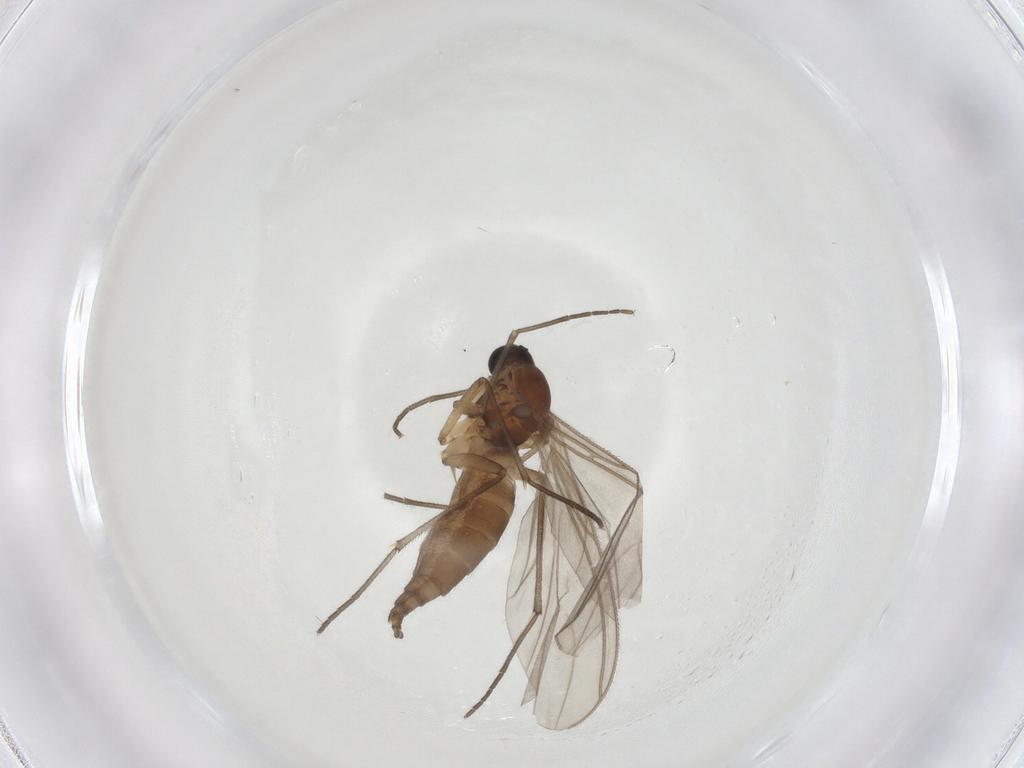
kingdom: Animalia
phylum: Arthropoda
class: Insecta
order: Diptera
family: Sciaridae
